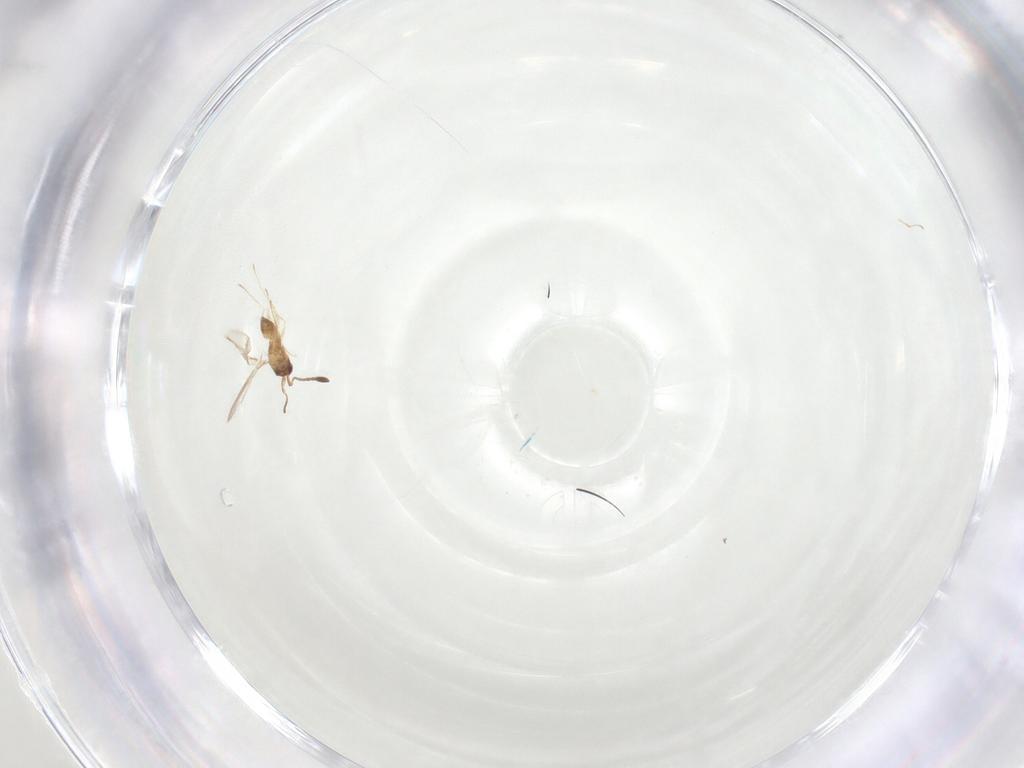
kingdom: Animalia
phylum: Arthropoda
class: Insecta
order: Hymenoptera
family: Mymaridae
